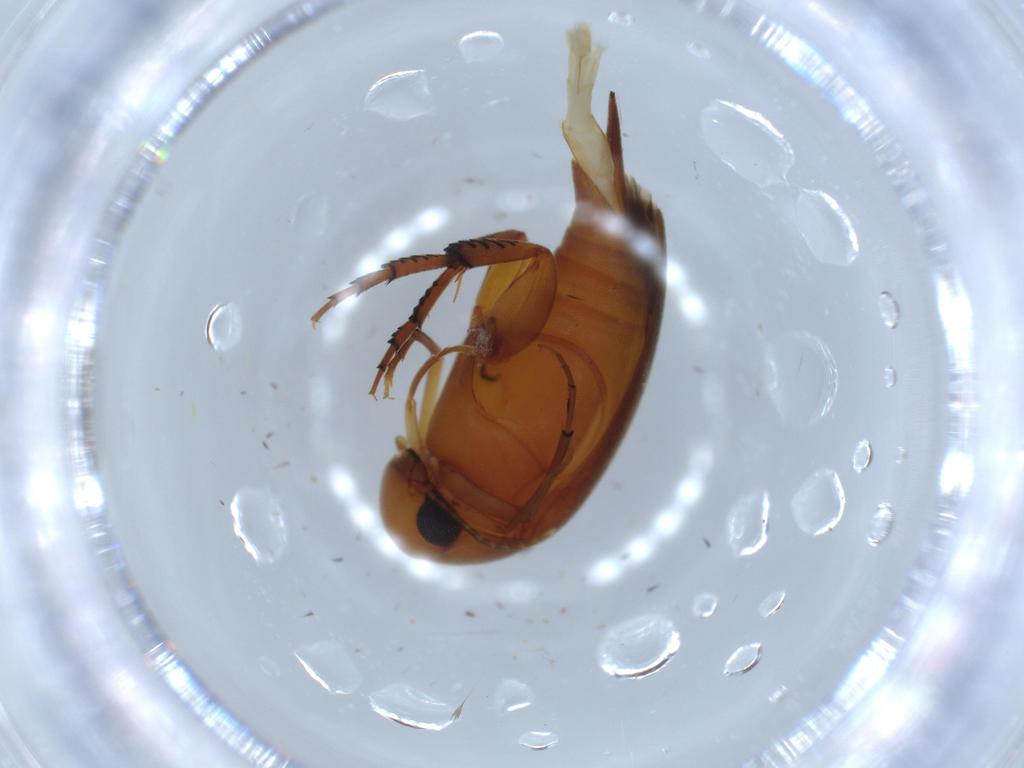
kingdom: Animalia
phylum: Arthropoda
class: Insecta
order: Coleoptera
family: Mordellidae
